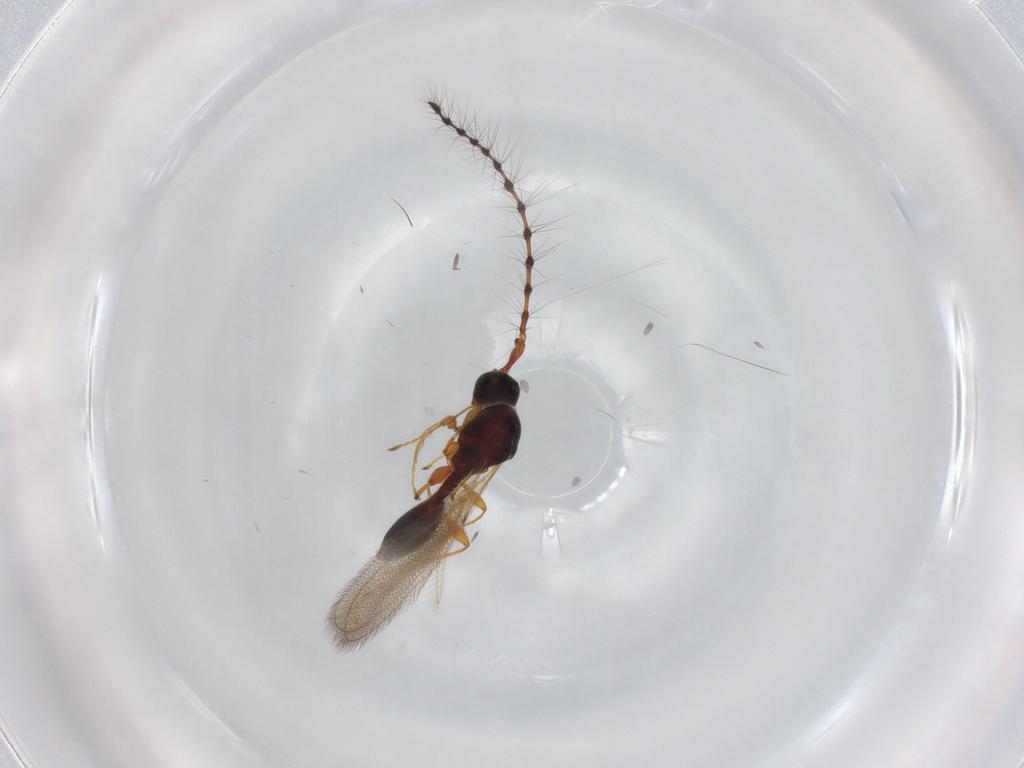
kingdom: Animalia
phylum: Arthropoda
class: Insecta
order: Hymenoptera
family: Diapriidae
